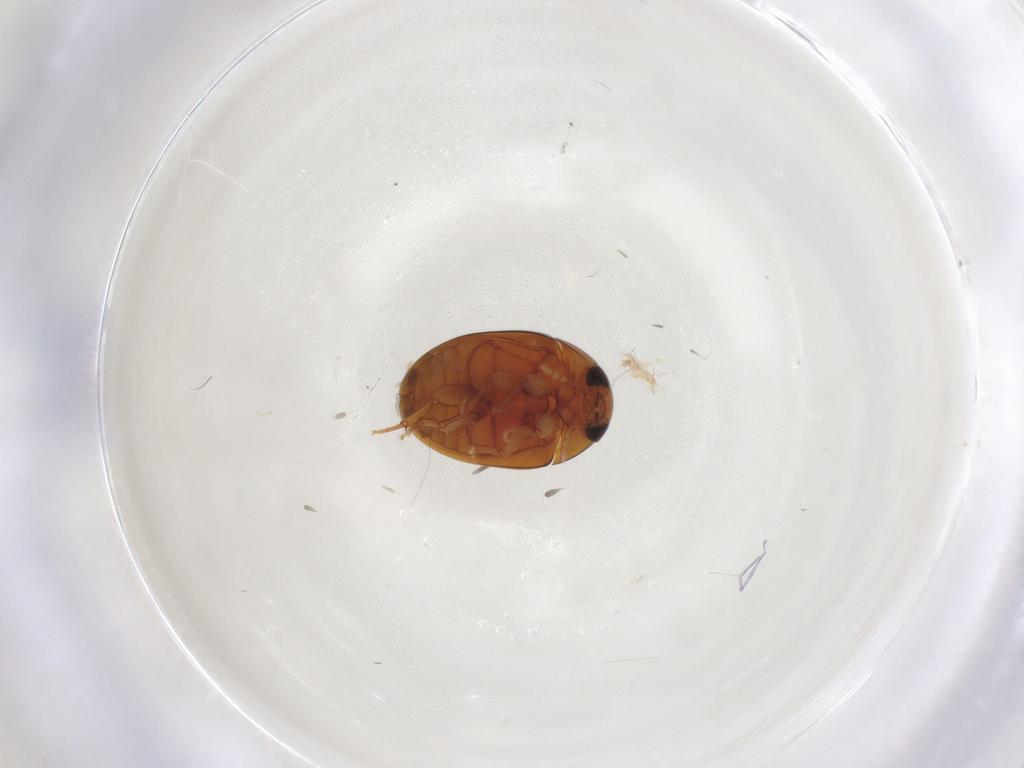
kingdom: Animalia
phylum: Arthropoda
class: Insecta
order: Coleoptera
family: Phalacridae
